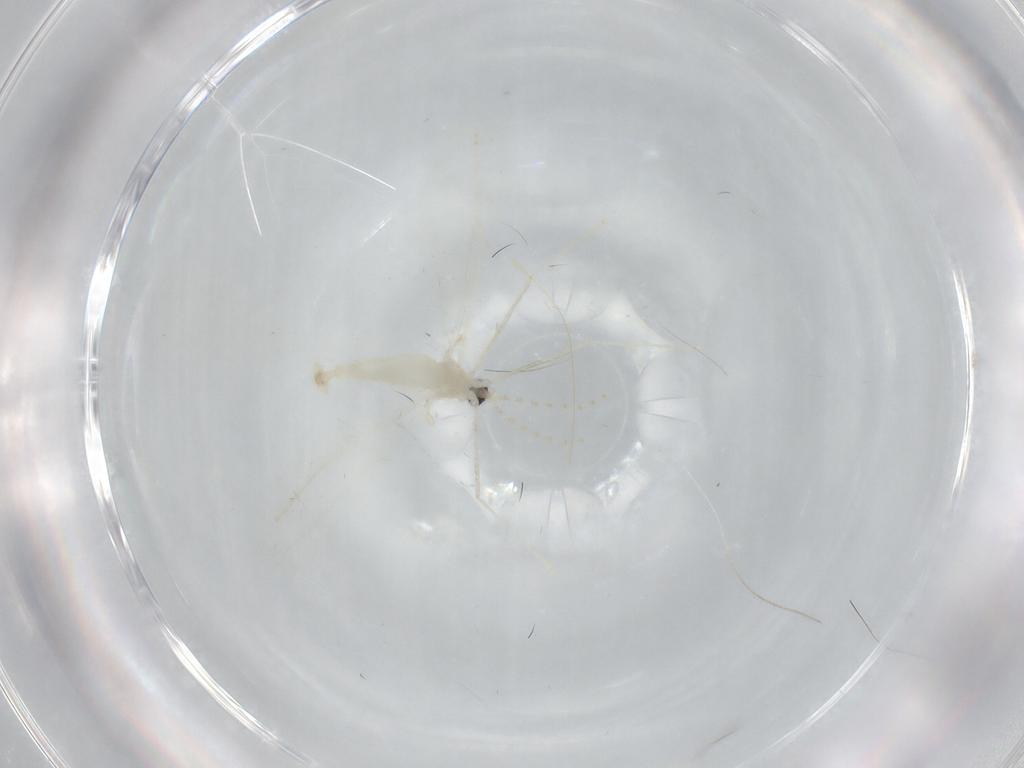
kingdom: Animalia
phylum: Arthropoda
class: Insecta
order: Diptera
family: Cecidomyiidae
